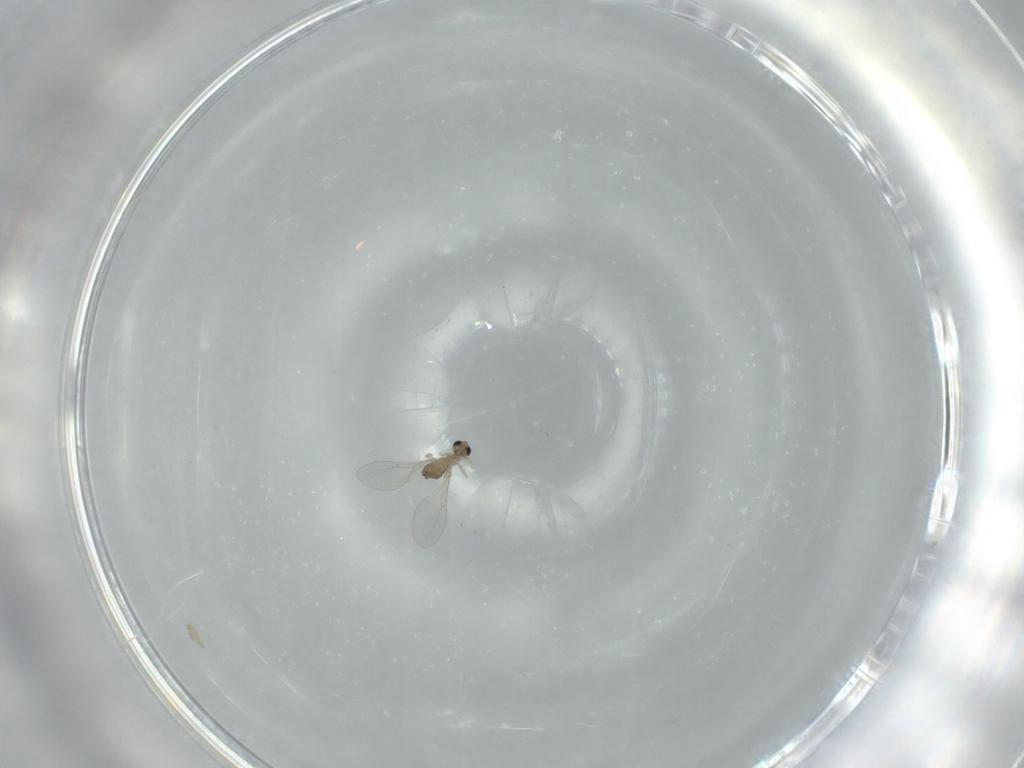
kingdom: Animalia
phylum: Arthropoda
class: Insecta
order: Diptera
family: Cecidomyiidae
